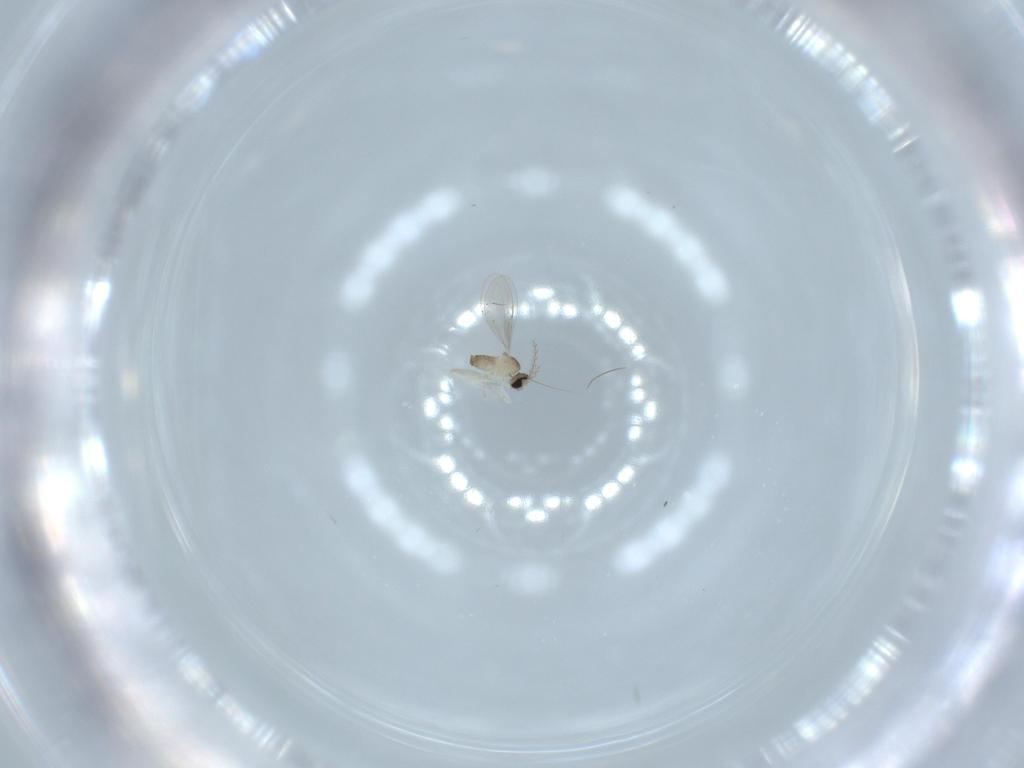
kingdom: Animalia
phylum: Arthropoda
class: Insecta
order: Diptera
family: Cecidomyiidae
